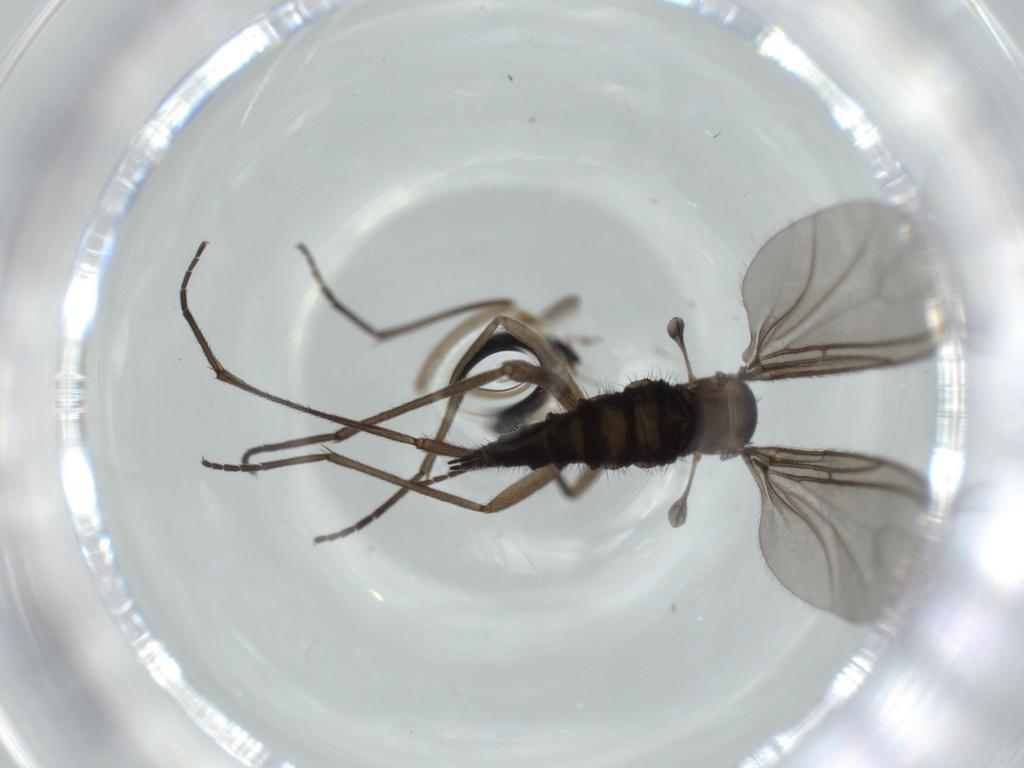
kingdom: Animalia
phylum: Arthropoda
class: Insecta
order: Diptera
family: Sciaridae
